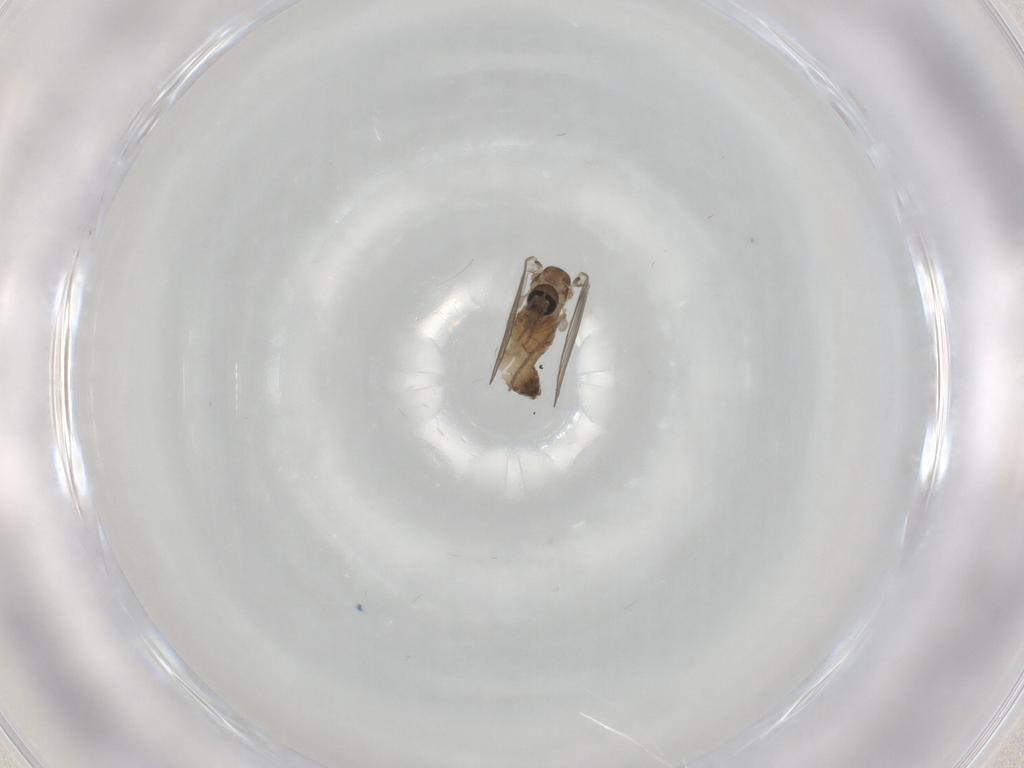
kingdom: Animalia
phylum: Arthropoda
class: Insecta
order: Diptera
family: Psychodidae
